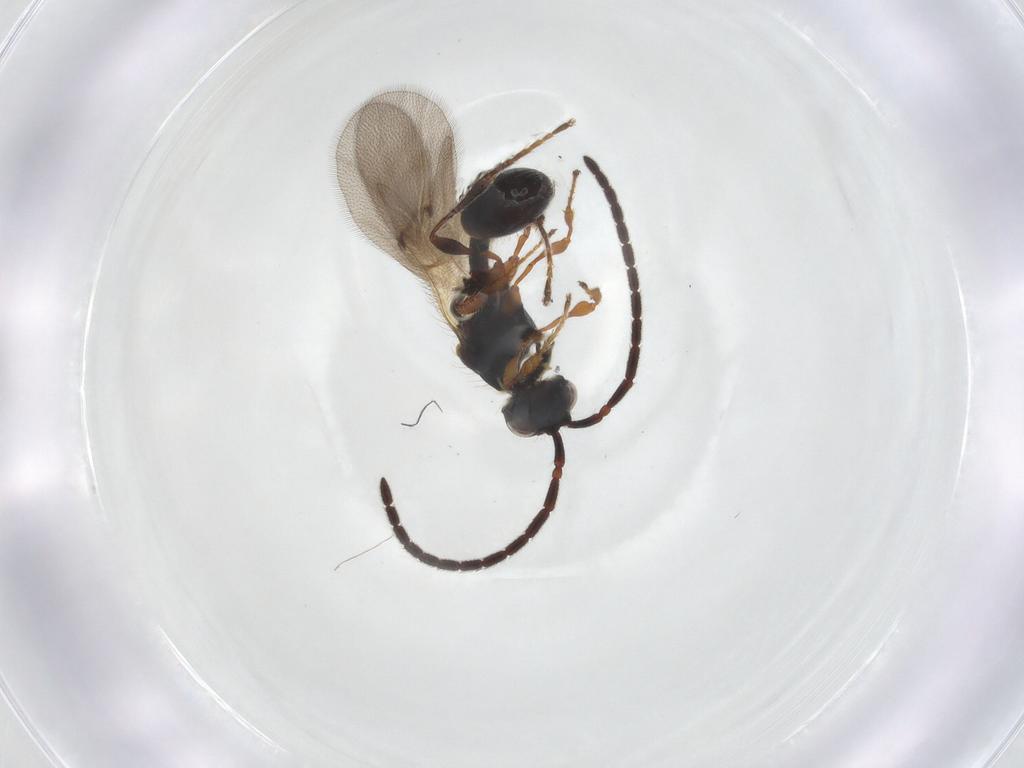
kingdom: Animalia
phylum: Arthropoda
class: Insecta
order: Hymenoptera
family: Diapriidae
